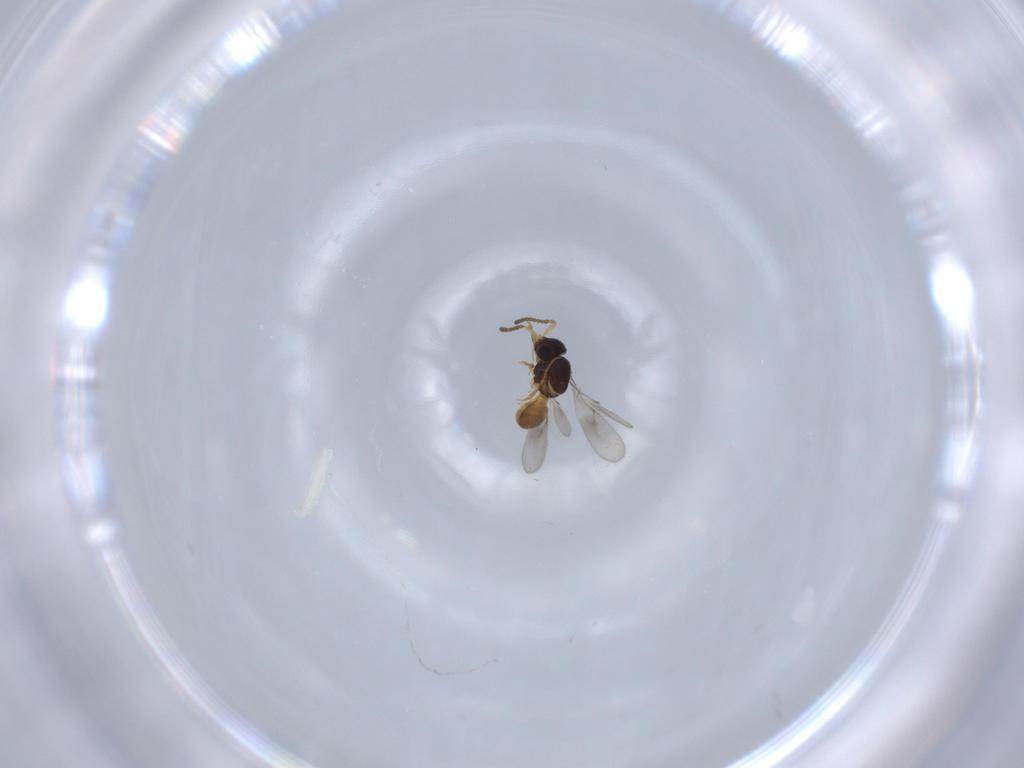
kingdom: Animalia
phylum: Arthropoda
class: Insecta
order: Hymenoptera
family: Scelionidae
